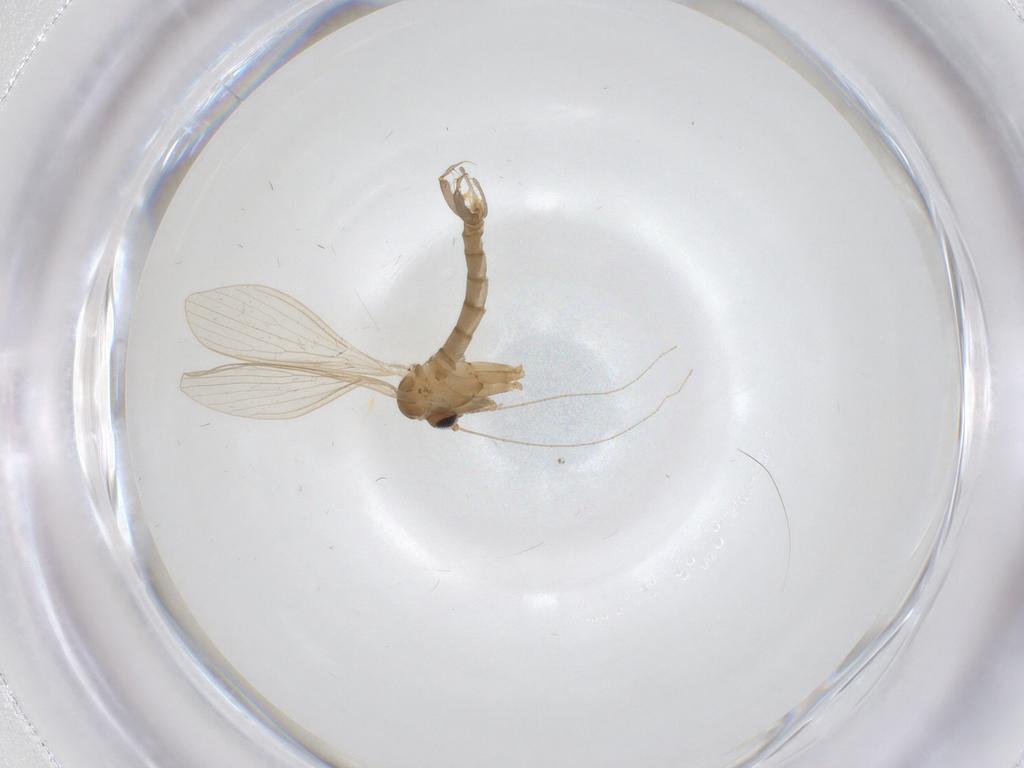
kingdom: Animalia
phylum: Arthropoda
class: Insecta
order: Diptera
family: Psychodidae
